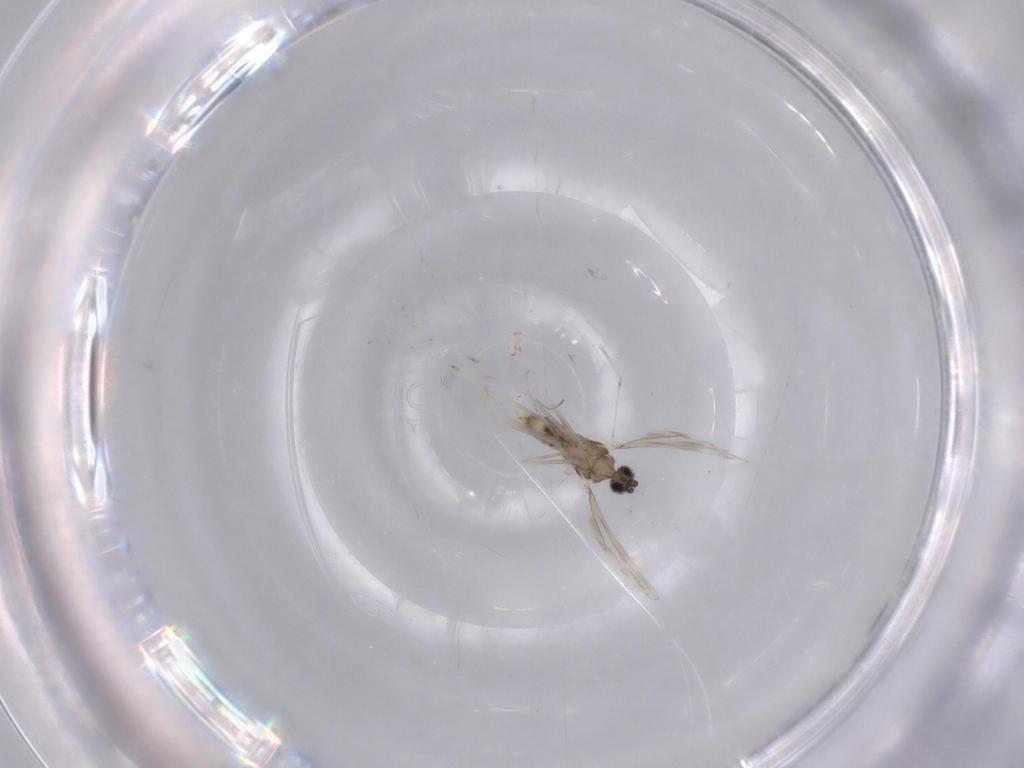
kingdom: Animalia
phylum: Arthropoda
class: Insecta
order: Diptera
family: Cecidomyiidae
